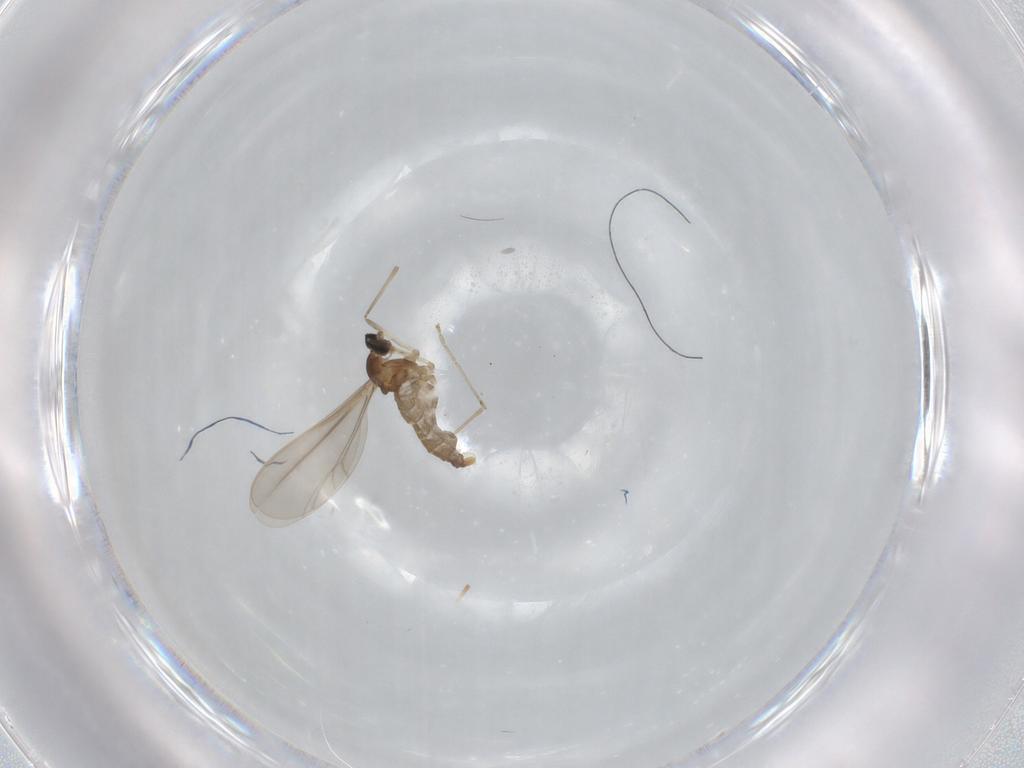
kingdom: Animalia
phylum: Arthropoda
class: Insecta
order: Diptera
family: Cecidomyiidae
